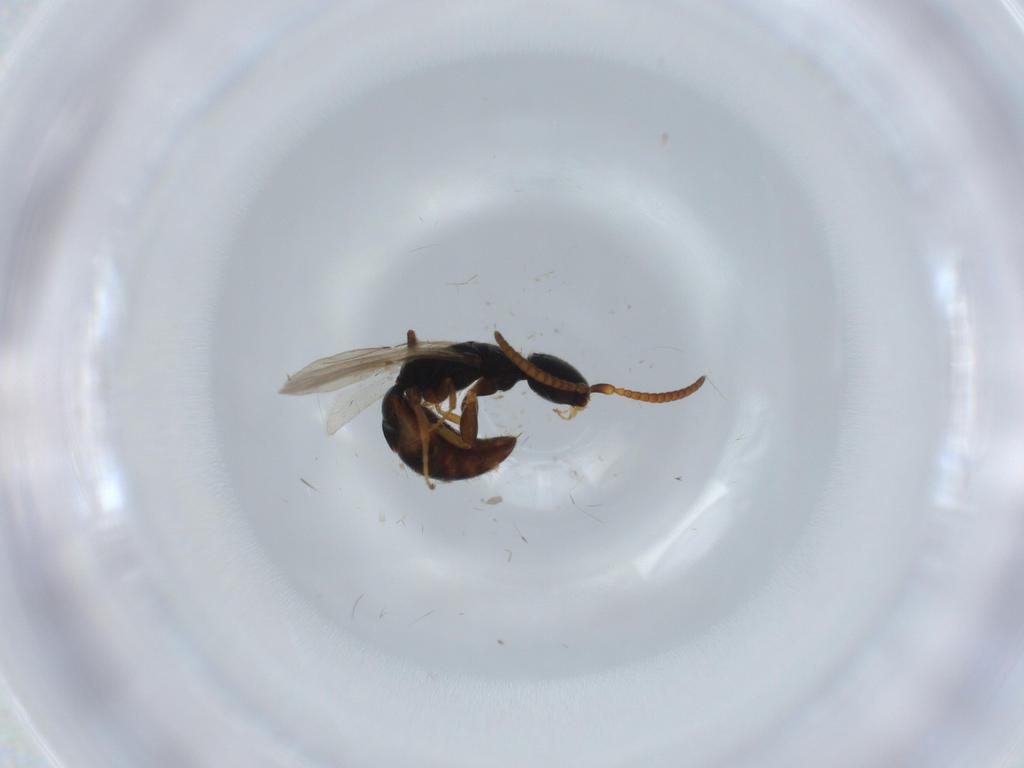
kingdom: Animalia
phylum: Arthropoda
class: Insecta
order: Hymenoptera
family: Bethylidae
